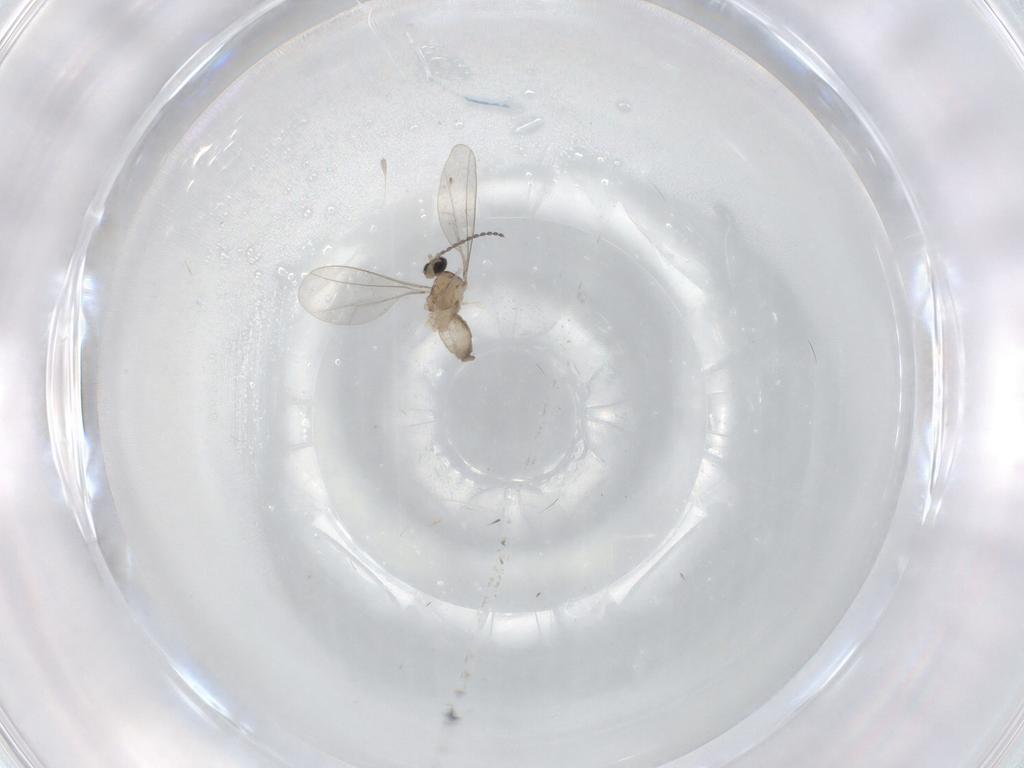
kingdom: Animalia
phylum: Arthropoda
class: Insecta
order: Diptera
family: Cecidomyiidae
